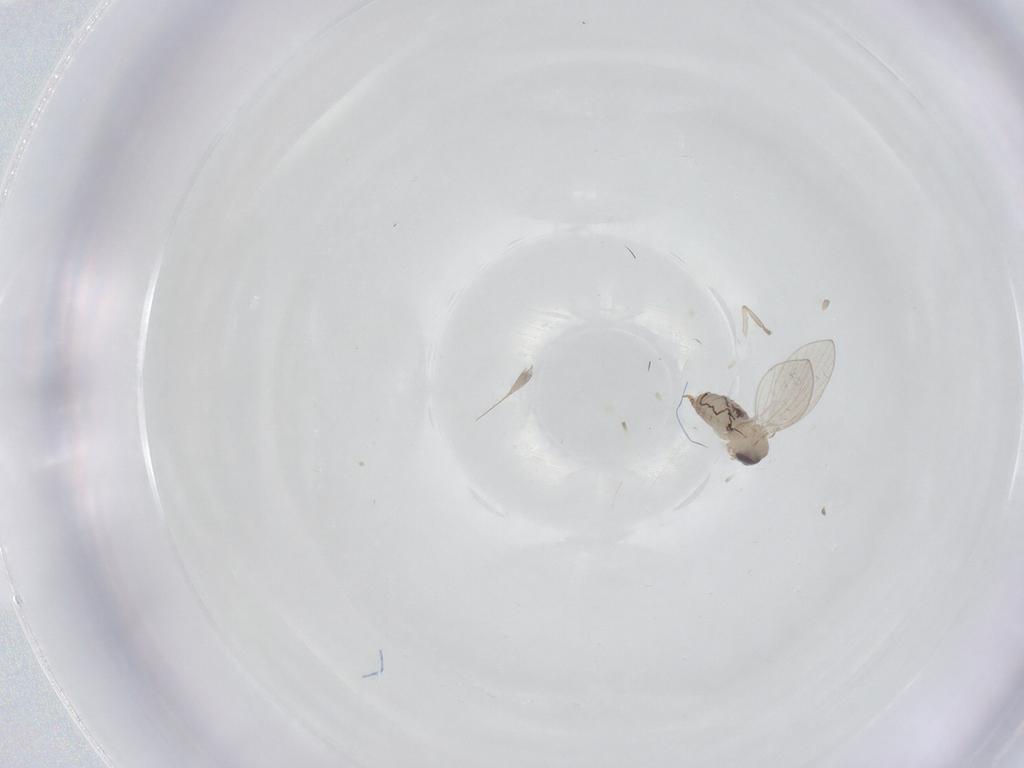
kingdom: Animalia
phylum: Arthropoda
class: Insecta
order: Diptera
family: Psychodidae
